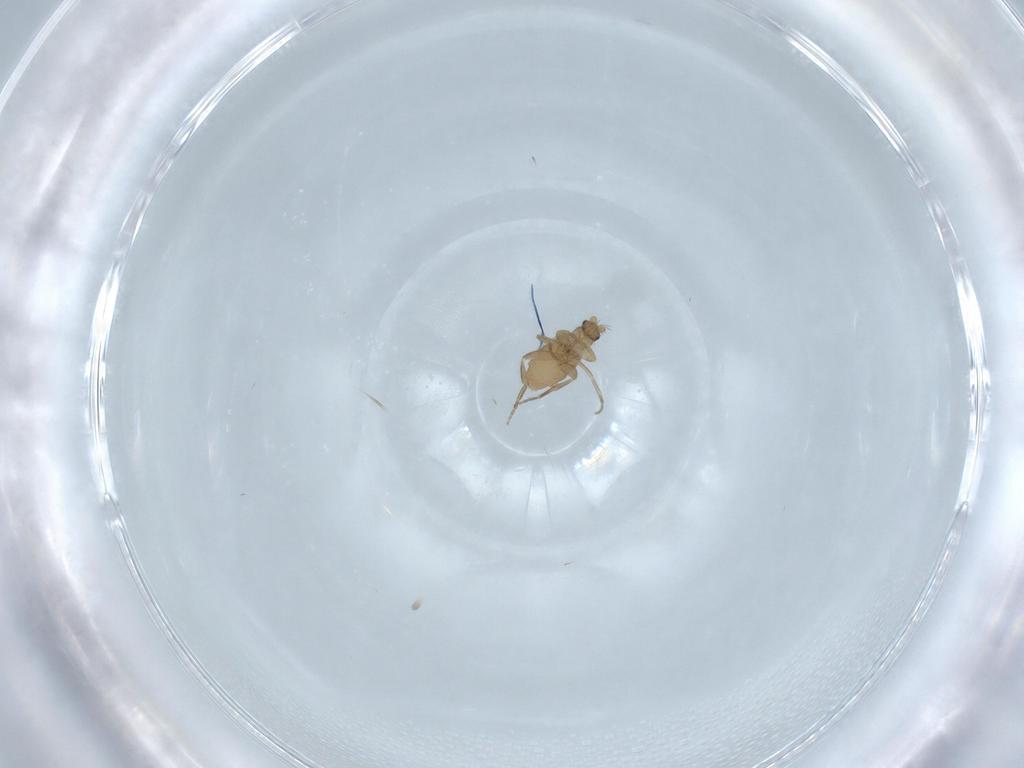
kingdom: Animalia
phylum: Arthropoda
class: Insecta
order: Diptera
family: Phoridae
